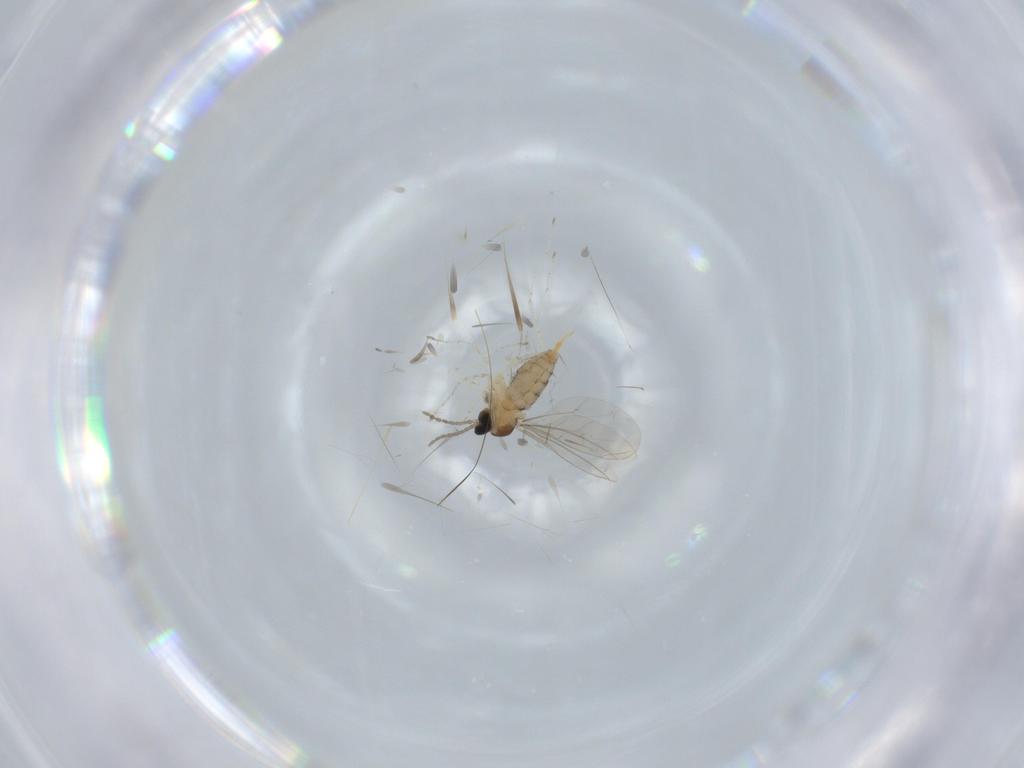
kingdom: Animalia
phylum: Arthropoda
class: Insecta
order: Diptera
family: Cecidomyiidae
